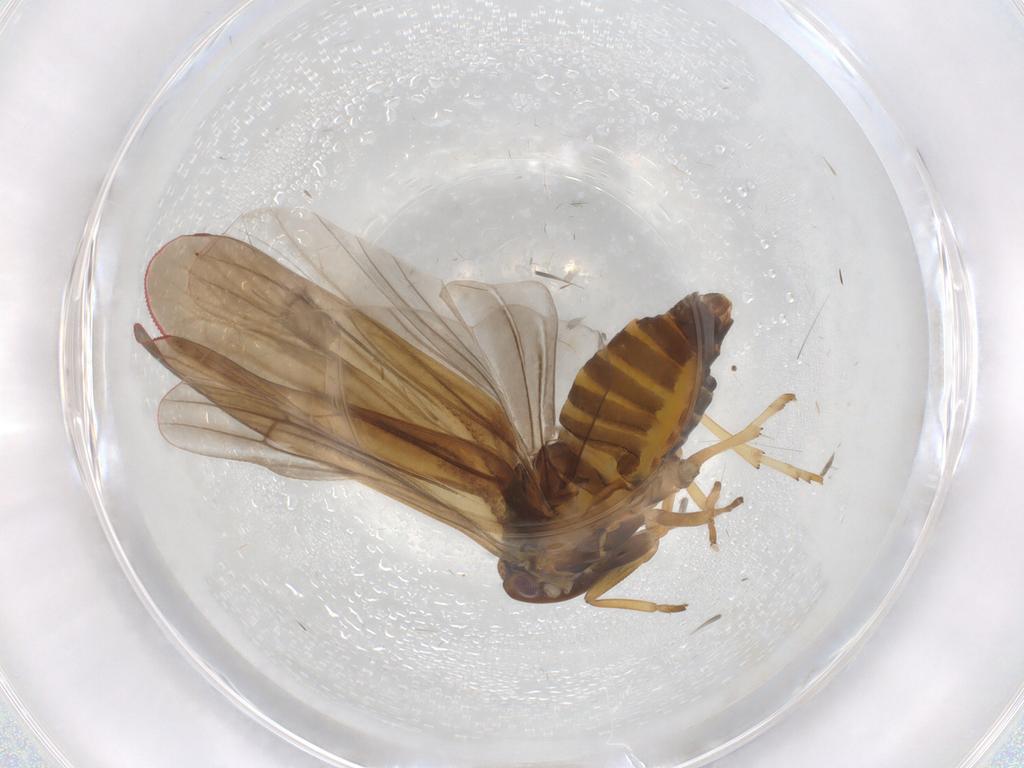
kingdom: Animalia
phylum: Arthropoda
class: Insecta
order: Hemiptera
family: Derbidae
